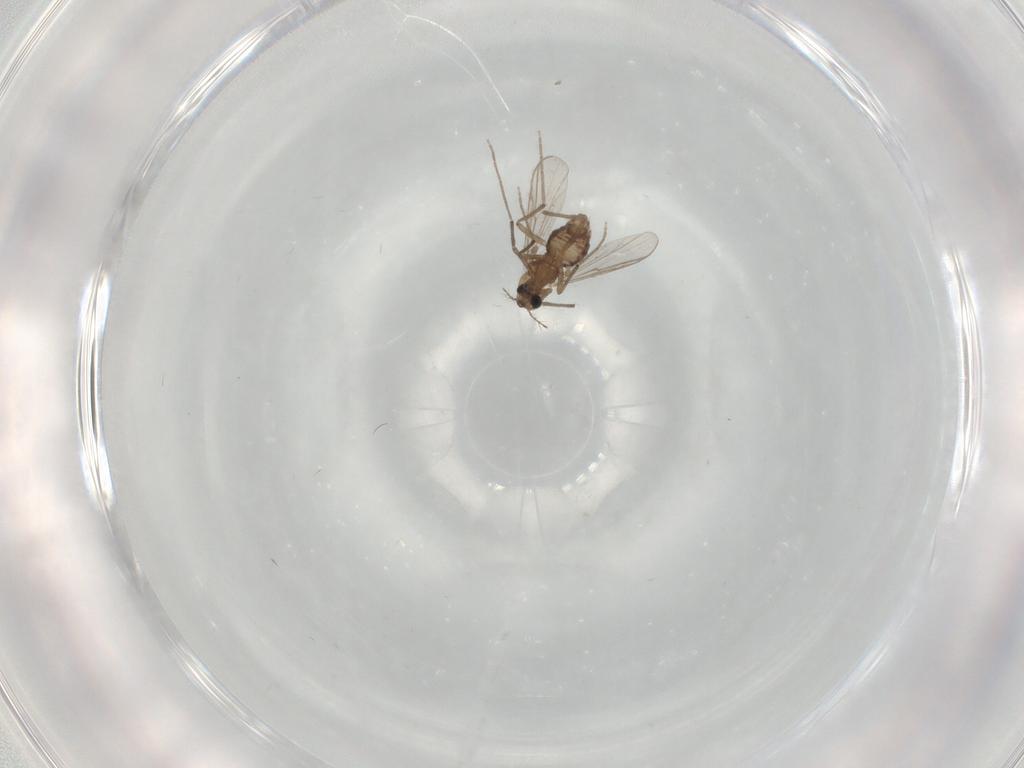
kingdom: Animalia
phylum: Arthropoda
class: Insecta
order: Diptera
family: Chironomidae
